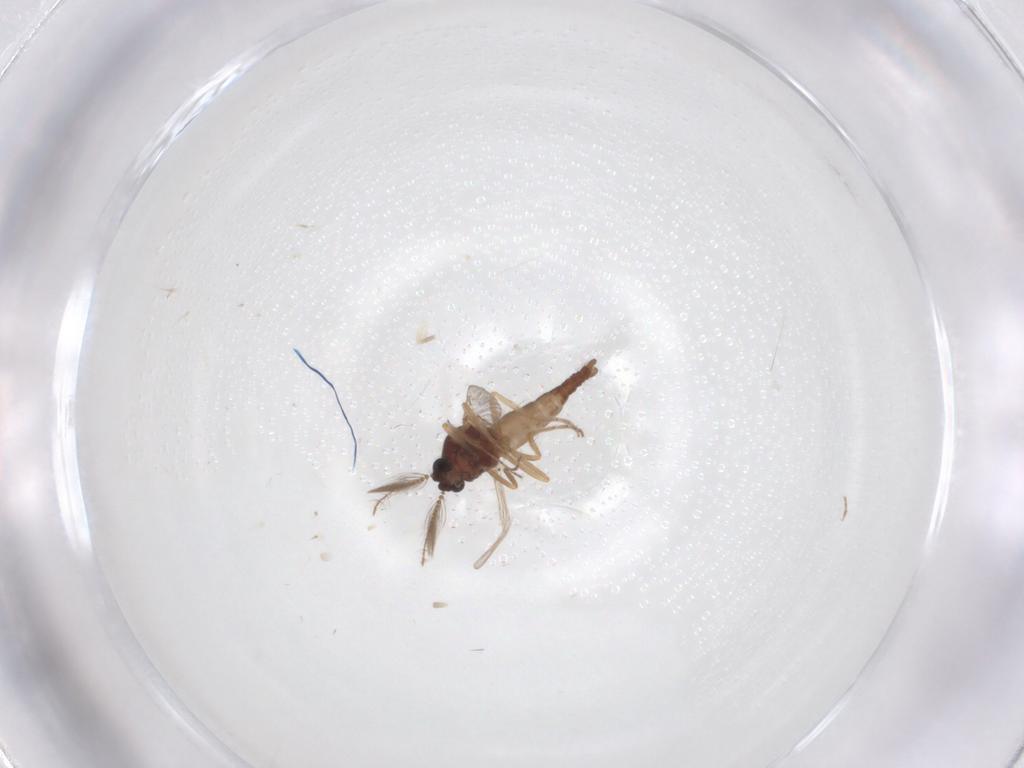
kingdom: Animalia
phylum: Arthropoda
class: Insecta
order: Diptera
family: Ceratopogonidae
